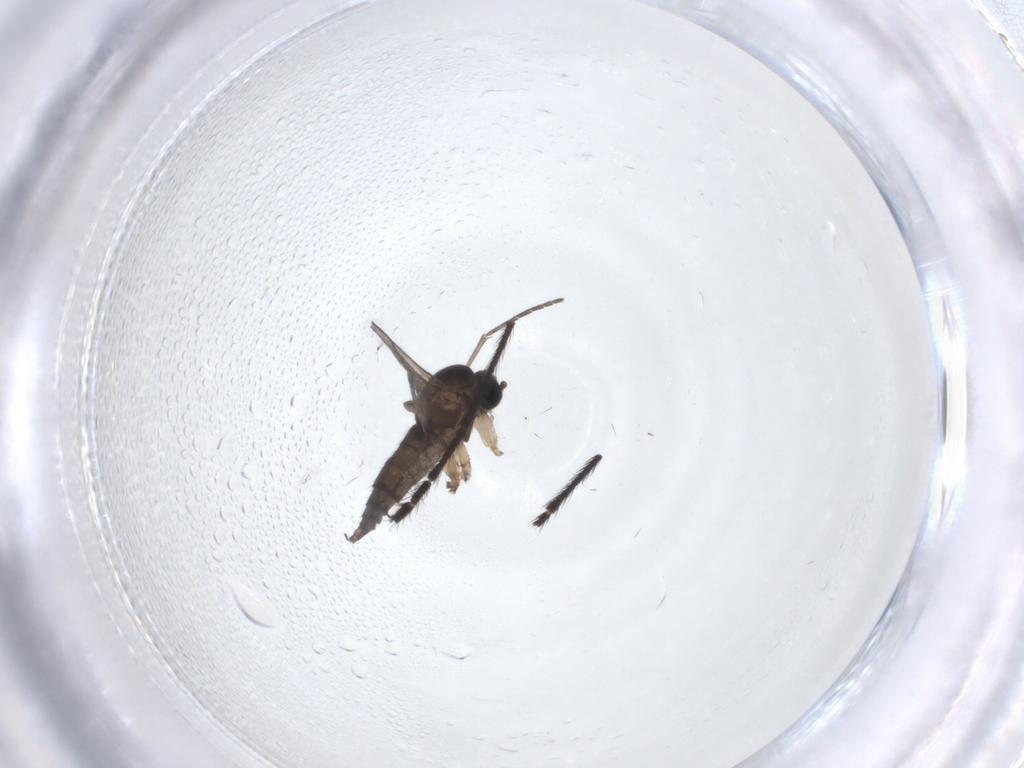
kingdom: Animalia
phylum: Arthropoda
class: Insecta
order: Diptera
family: Sciaridae
